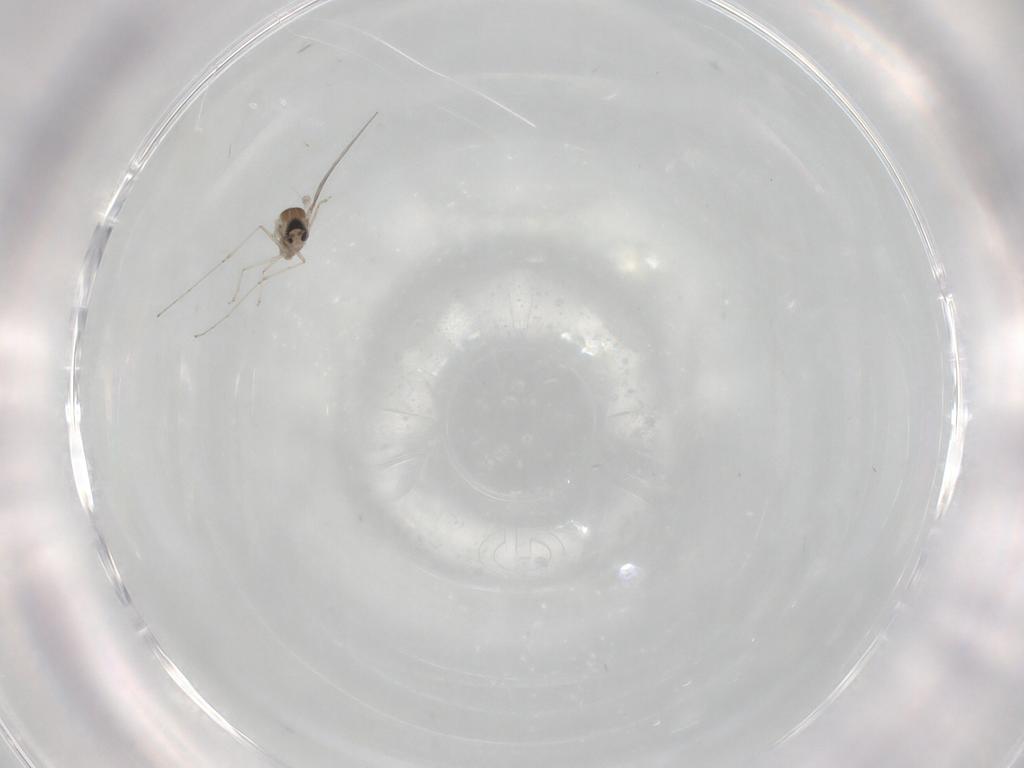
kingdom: Animalia
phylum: Arthropoda
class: Insecta
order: Diptera
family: Cecidomyiidae
